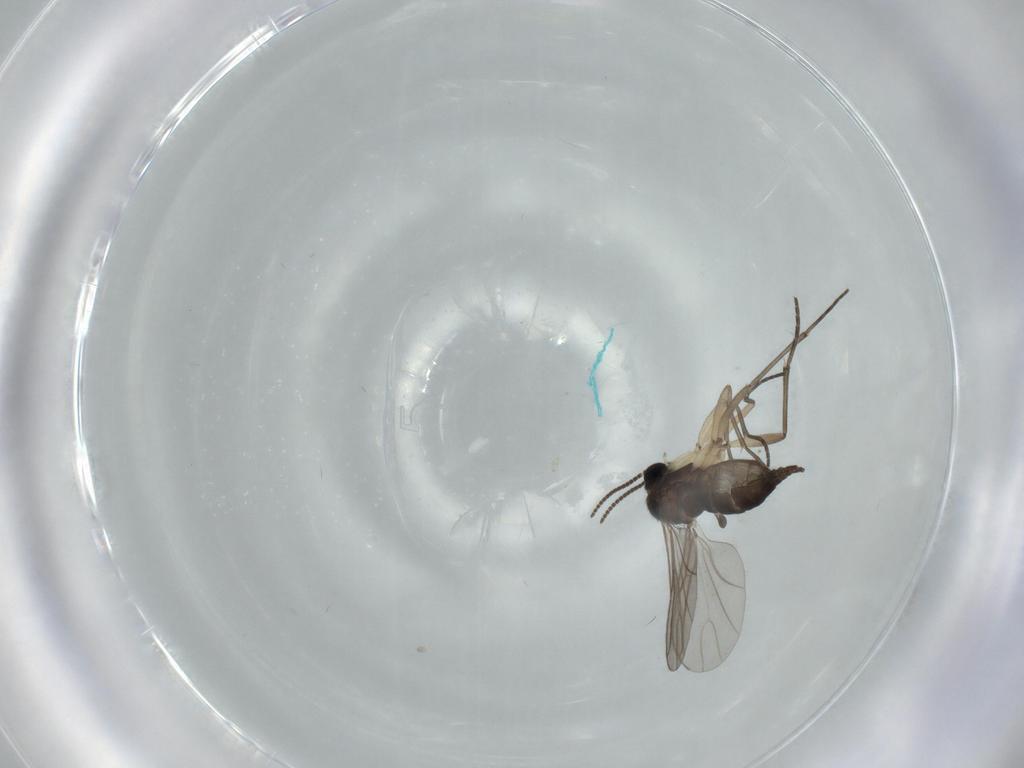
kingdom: Animalia
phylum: Arthropoda
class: Insecta
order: Diptera
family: Sciaridae
